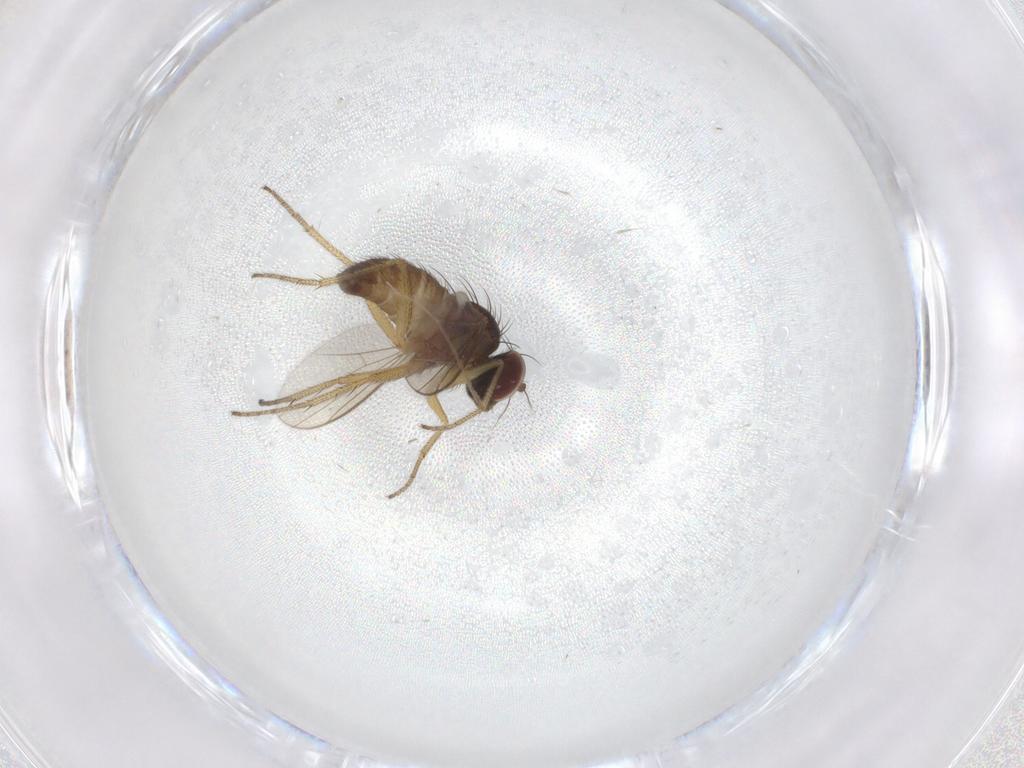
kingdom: Animalia
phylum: Arthropoda
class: Insecta
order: Diptera
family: Dolichopodidae
